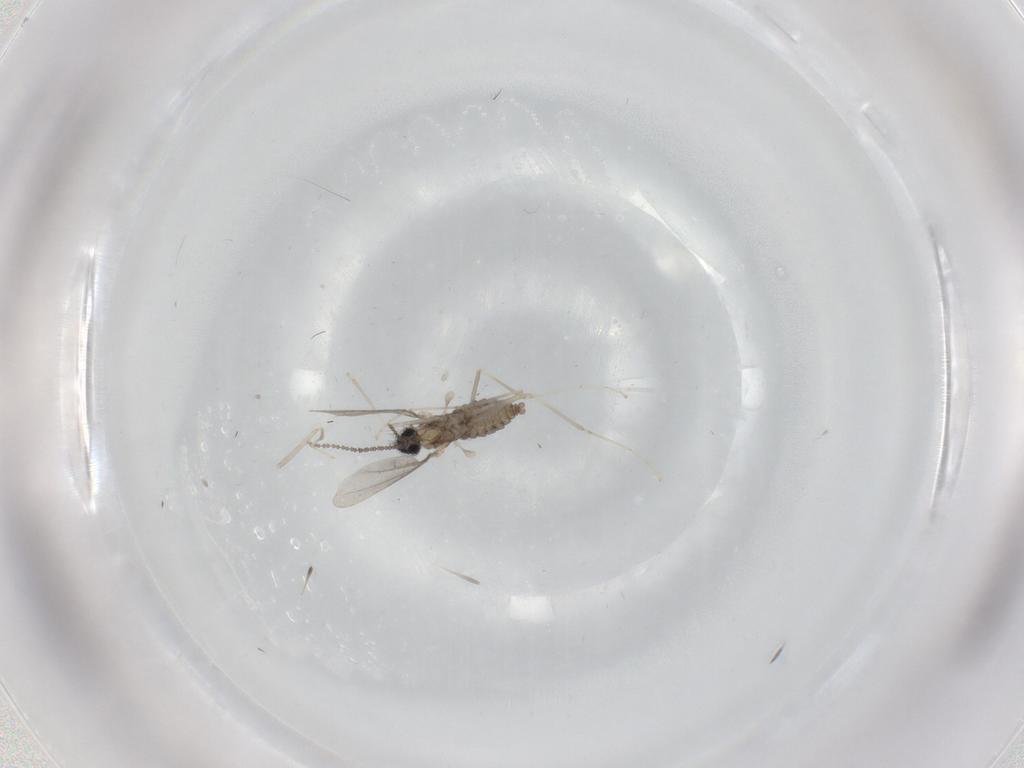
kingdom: Animalia
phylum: Arthropoda
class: Insecta
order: Diptera
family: Cecidomyiidae
